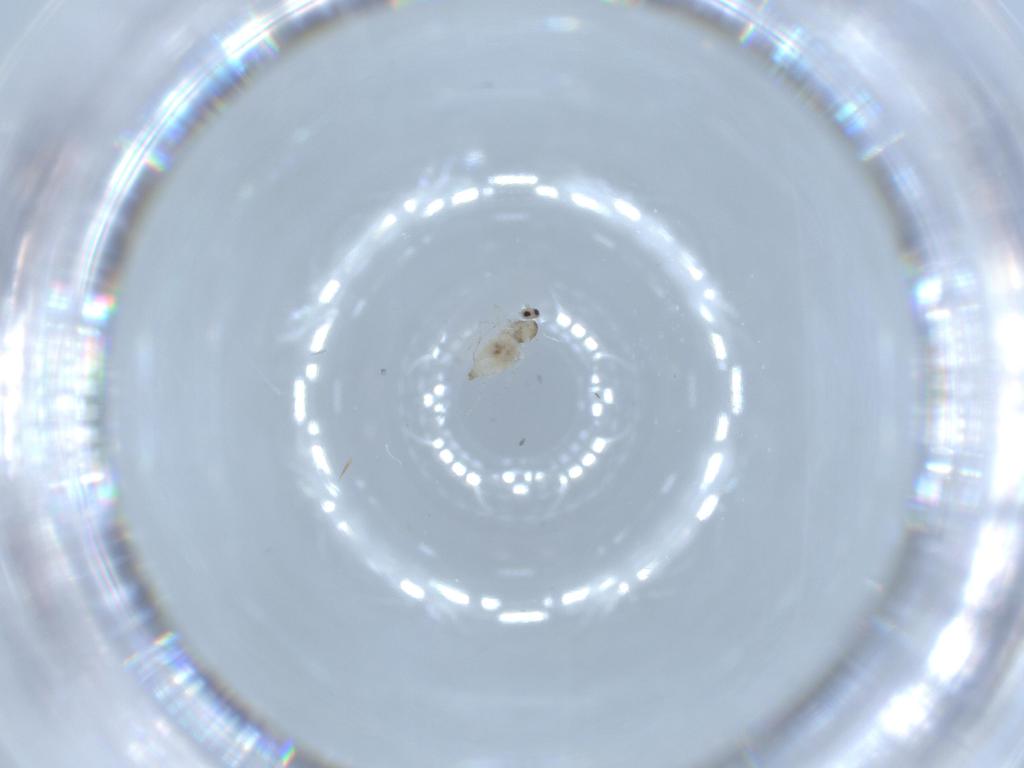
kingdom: Animalia
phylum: Arthropoda
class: Insecta
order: Diptera
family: Cecidomyiidae
